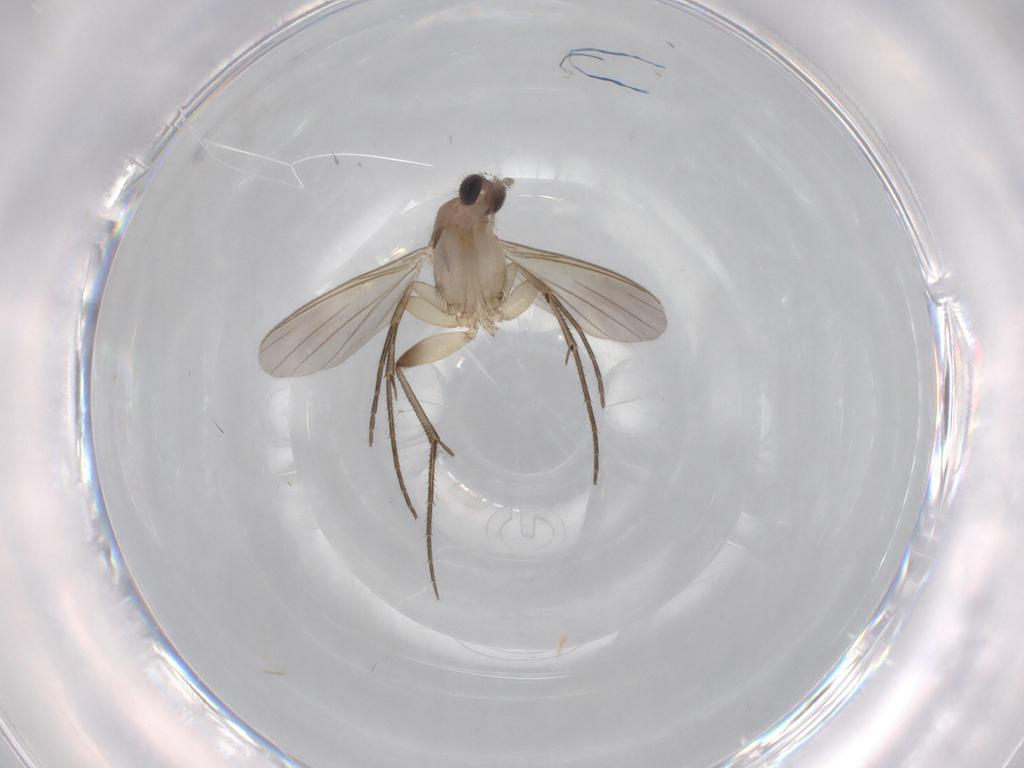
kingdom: Animalia
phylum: Arthropoda
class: Insecta
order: Diptera
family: Mycetophilidae
